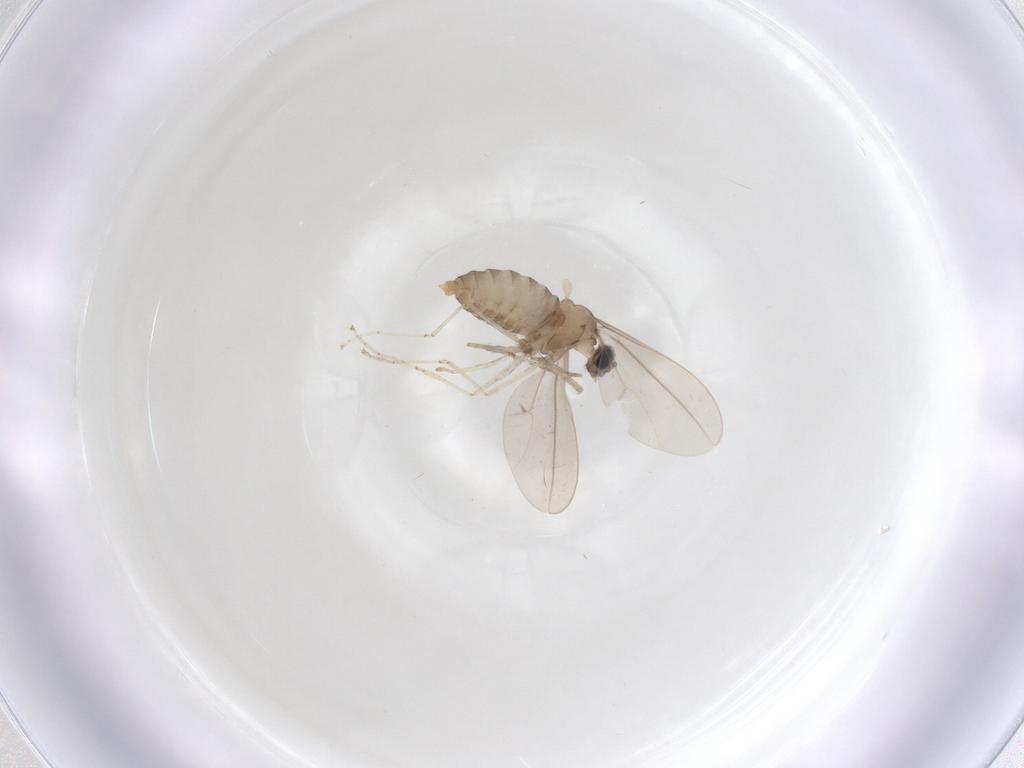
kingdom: Animalia
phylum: Arthropoda
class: Insecta
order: Diptera
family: Cecidomyiidae
